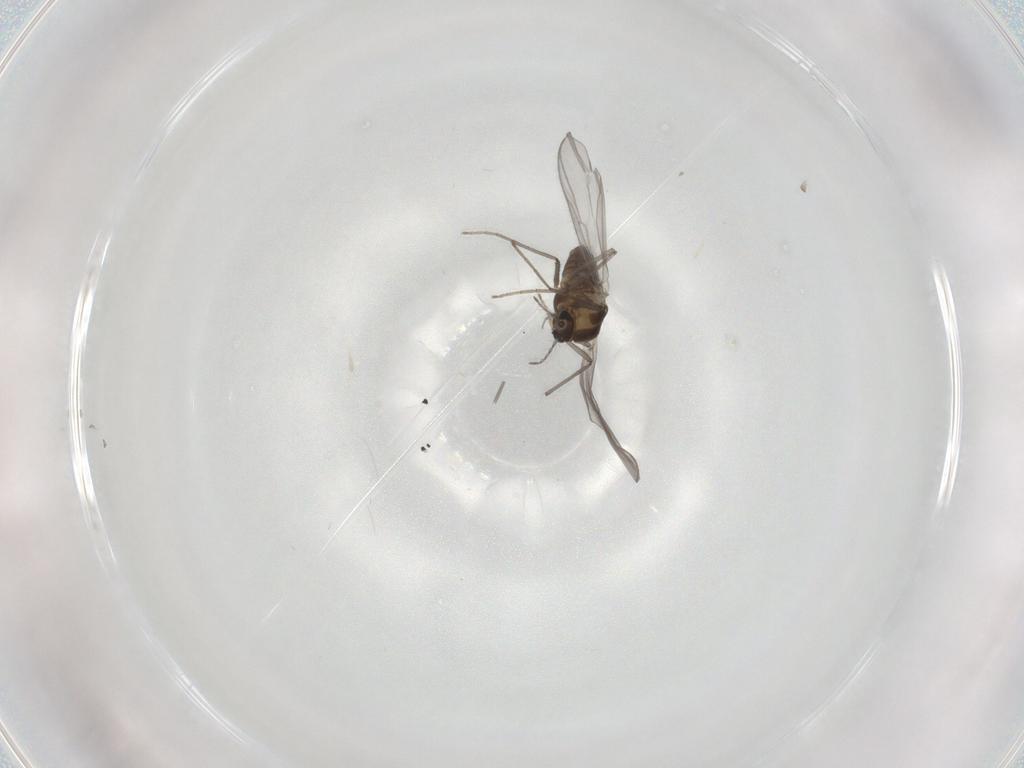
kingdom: Animalia
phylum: Arthropoda
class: Insecta
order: Diptera
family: Chironomidae
